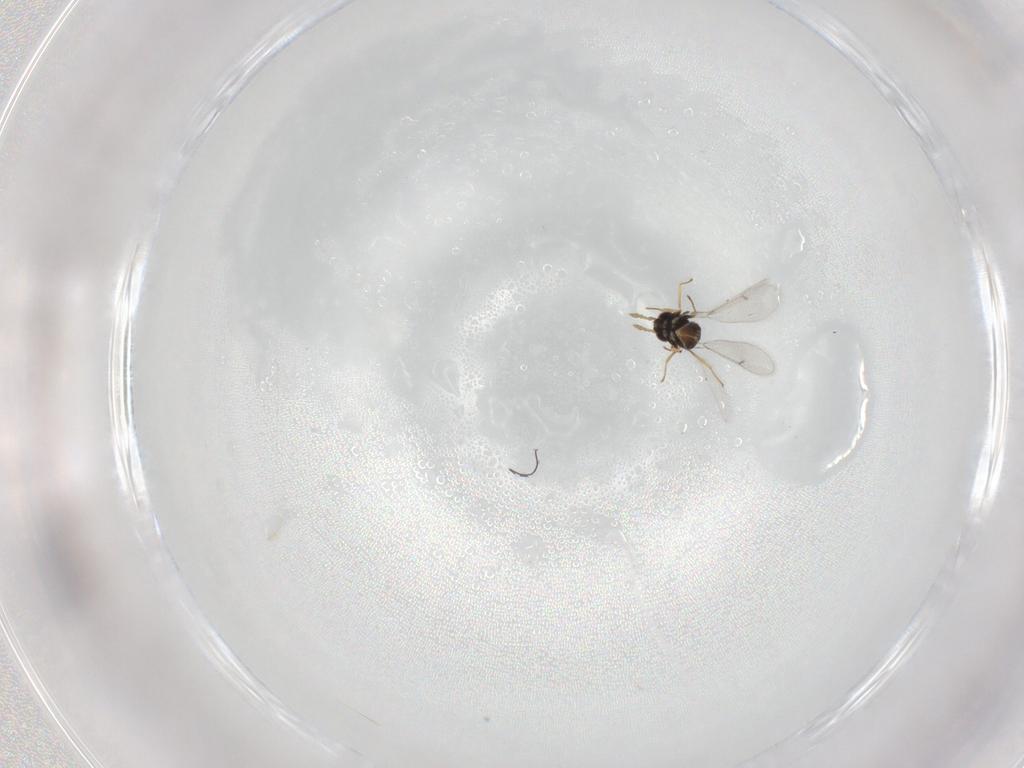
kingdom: Animalia
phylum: Arthropoda
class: Insecta
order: Hymenoptera
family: Eulophidae
